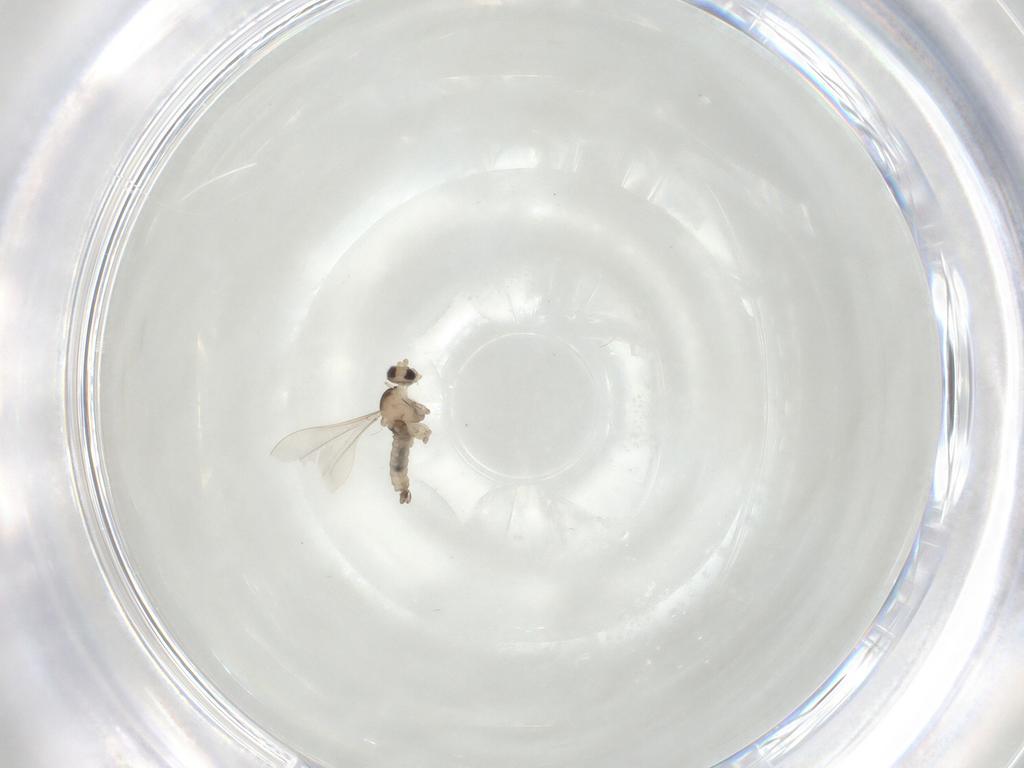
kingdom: Animalia
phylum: Arthropoda
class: Insecta
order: Diptera
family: Cecidomyiidae
